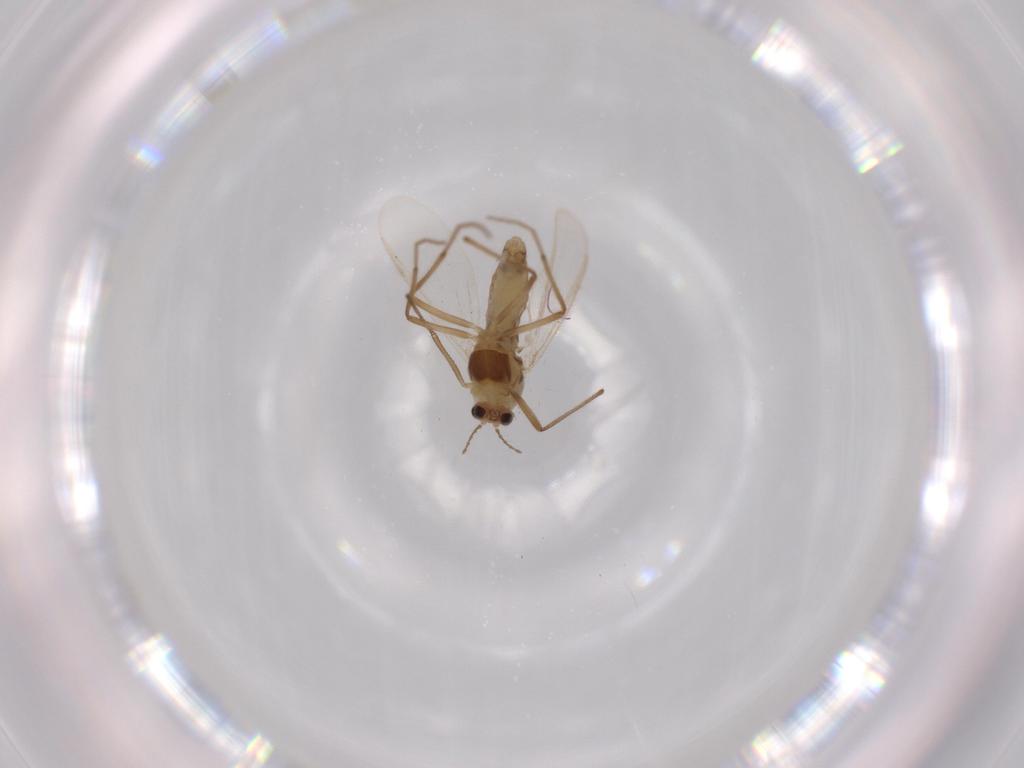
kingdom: Animalia
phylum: Arthropoda
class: Insecta
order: Diptera
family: Chironomidae
